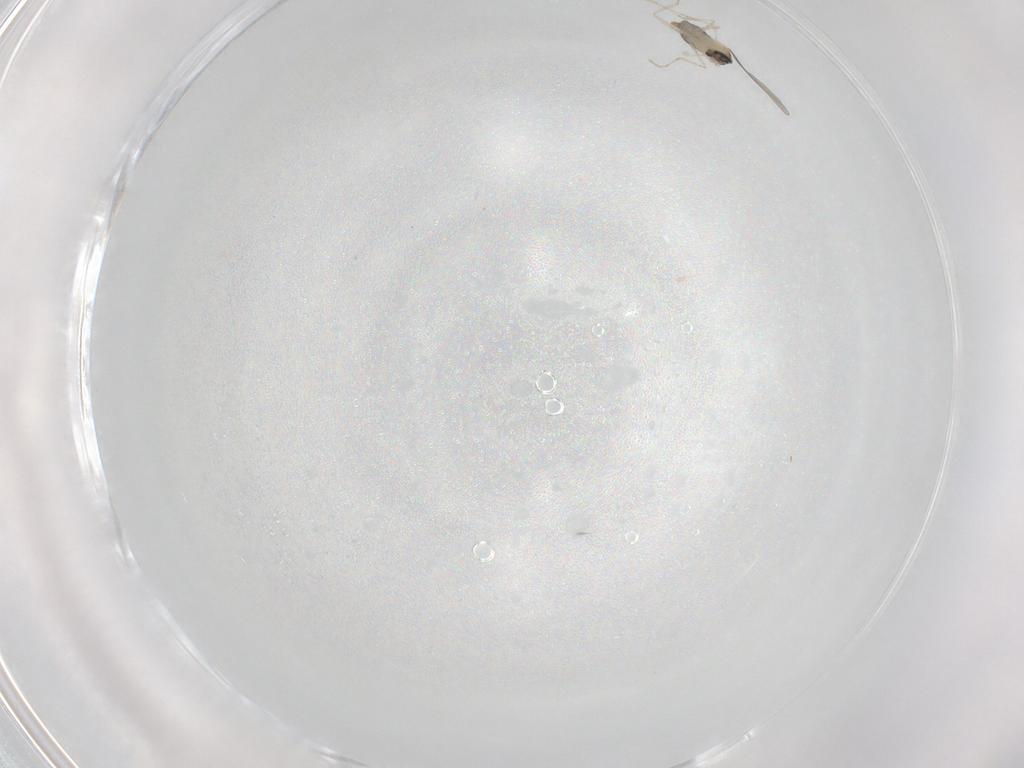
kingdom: Animalia
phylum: Arthropoda
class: Insecta
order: Diptera
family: Cecidomyiidae
